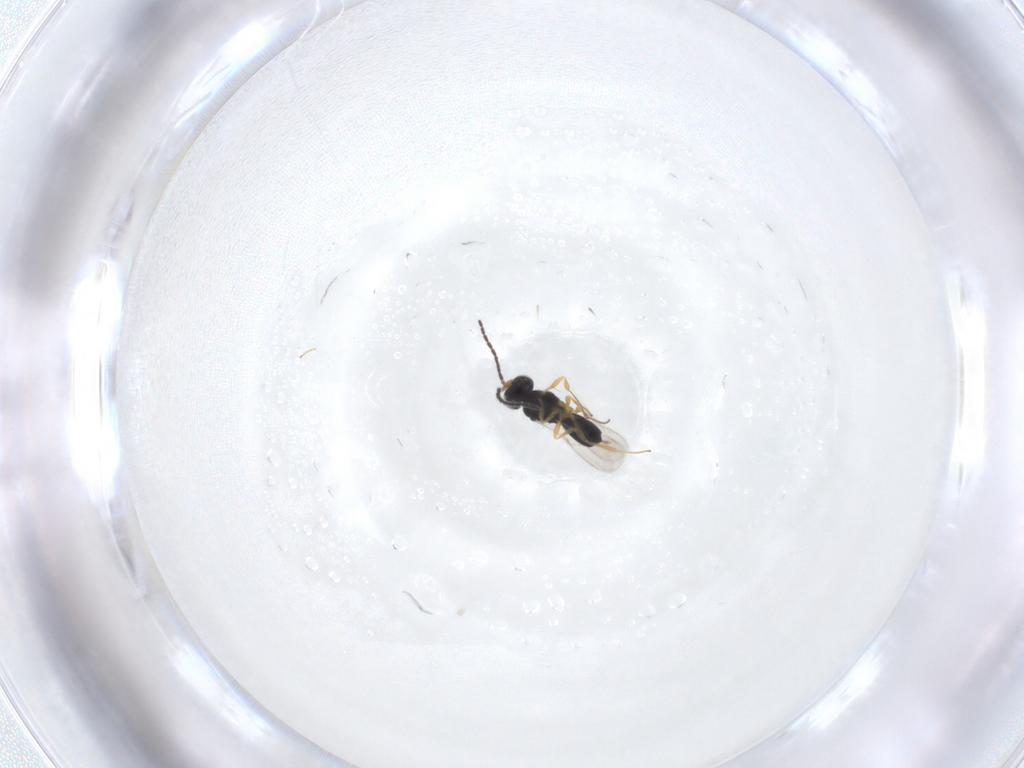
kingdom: Animalia
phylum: Arthropoda
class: Insecta
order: Hymenoptera
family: Scelionidae
